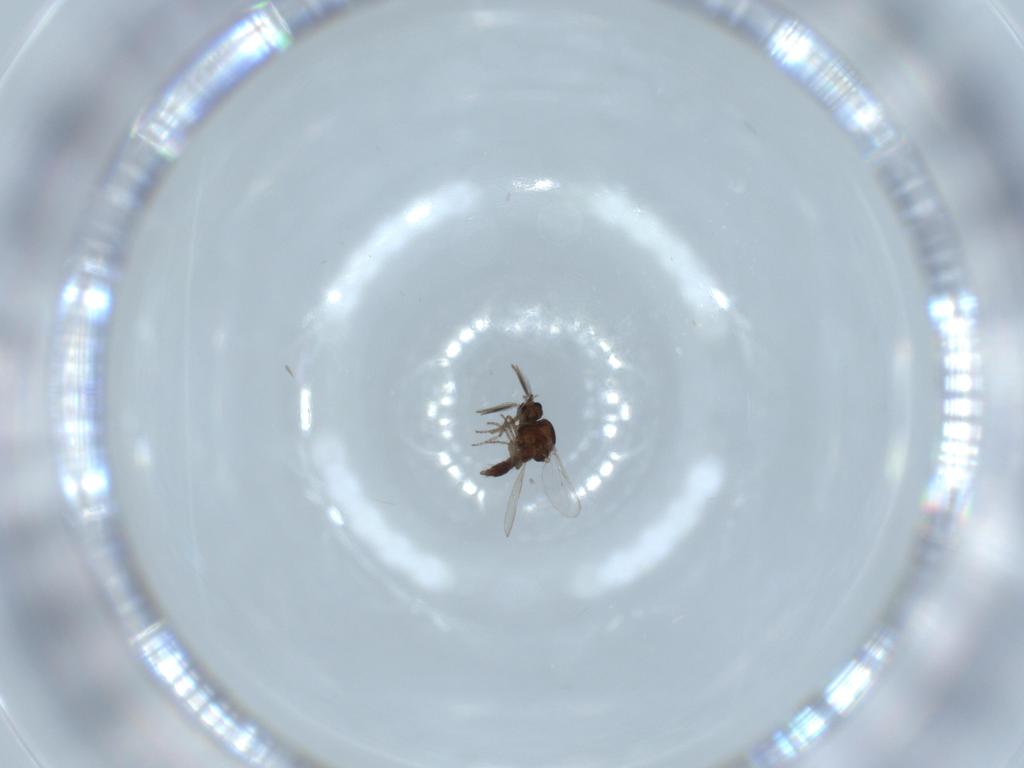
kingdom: Animalia
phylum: Arthropoda
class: Insecta
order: Diptera
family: Ceratopogonidae
